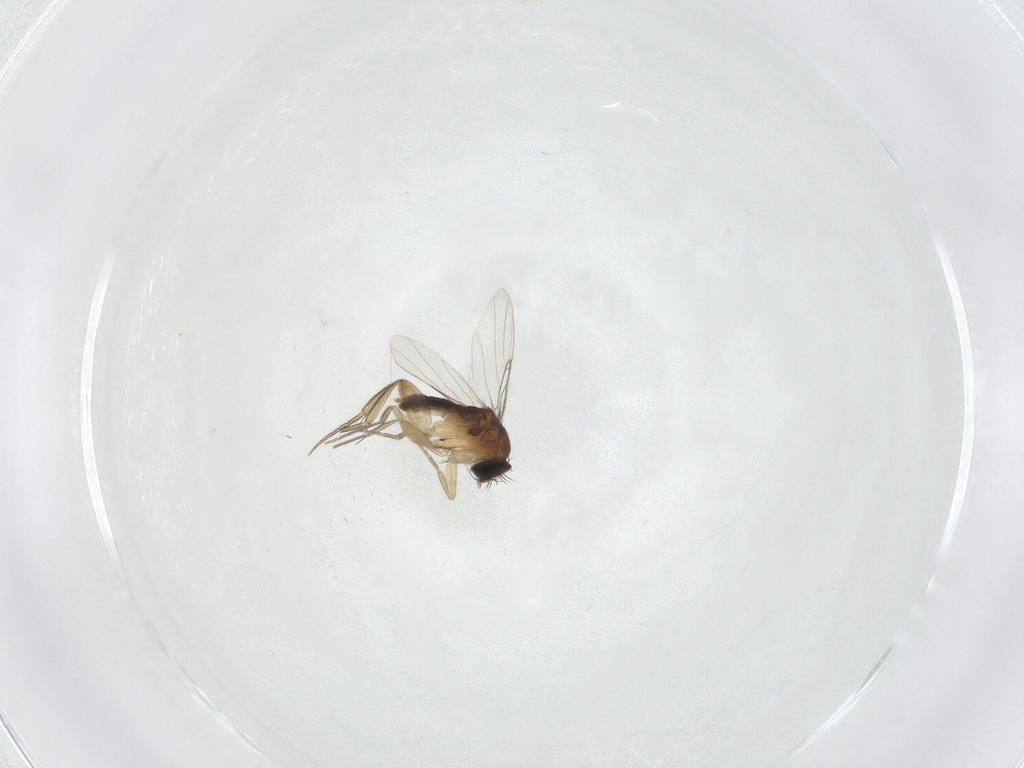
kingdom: Animalia
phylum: Arthropoda
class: Insecta
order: Diptera
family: Phoridae
